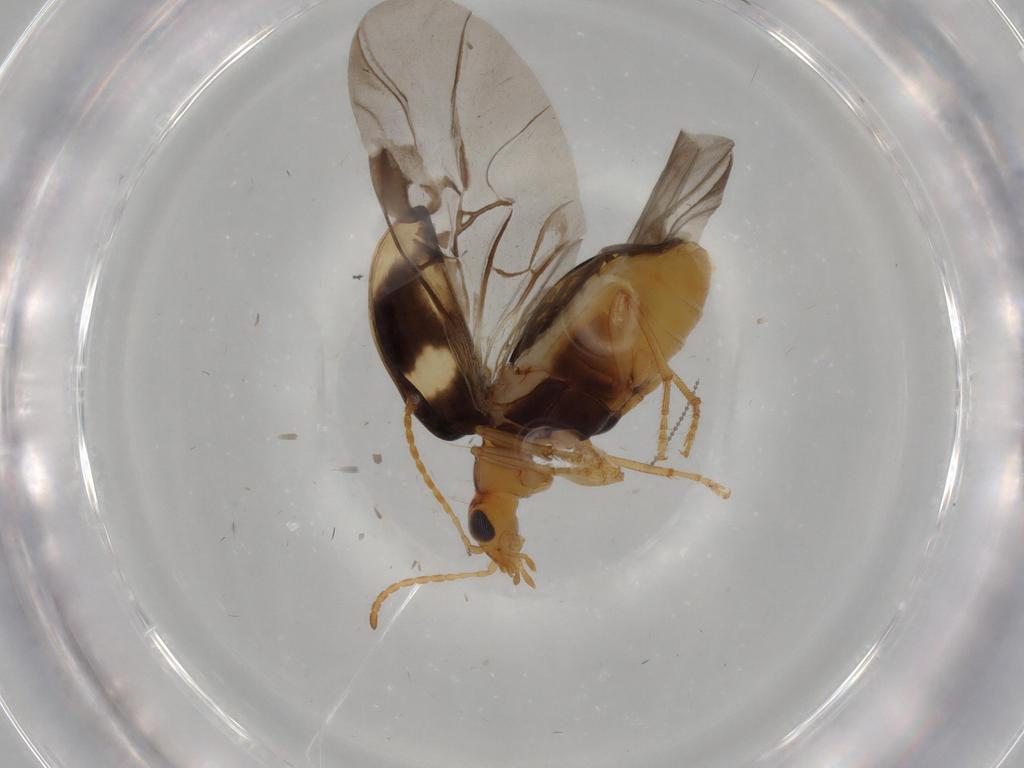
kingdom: Animalia
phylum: Arthropoda
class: Insecta
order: Coleoptera
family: Carabidae
